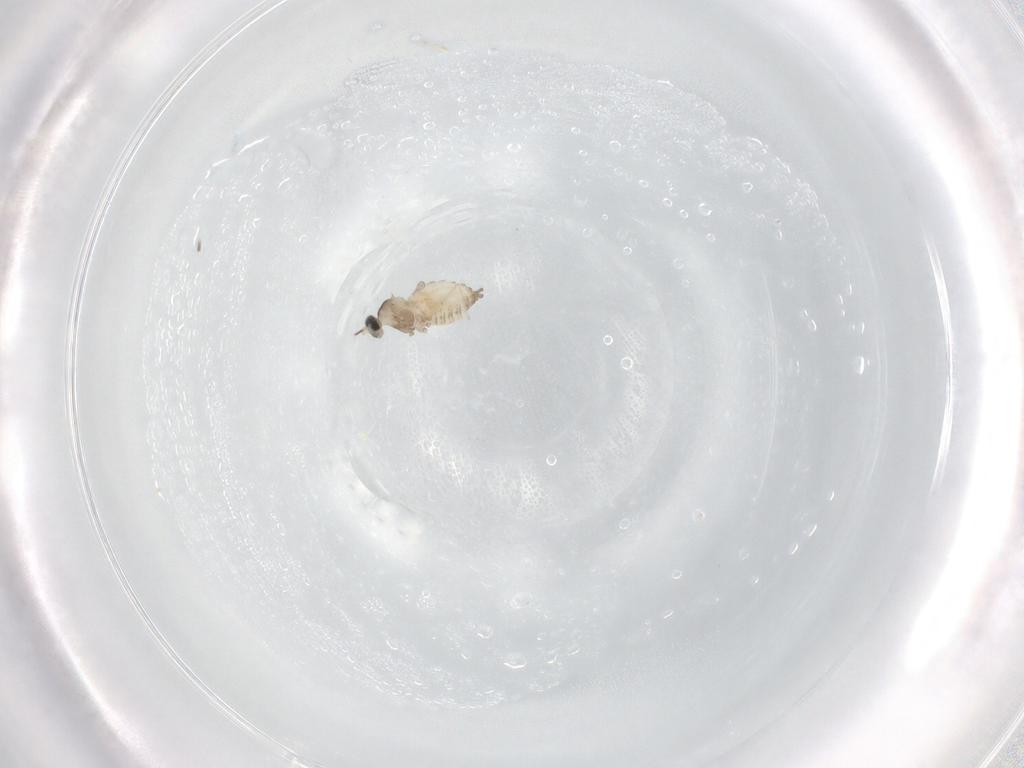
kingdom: Animalia
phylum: Arthropoda
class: Insecta
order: Diptera
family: Cecidomyiidae
